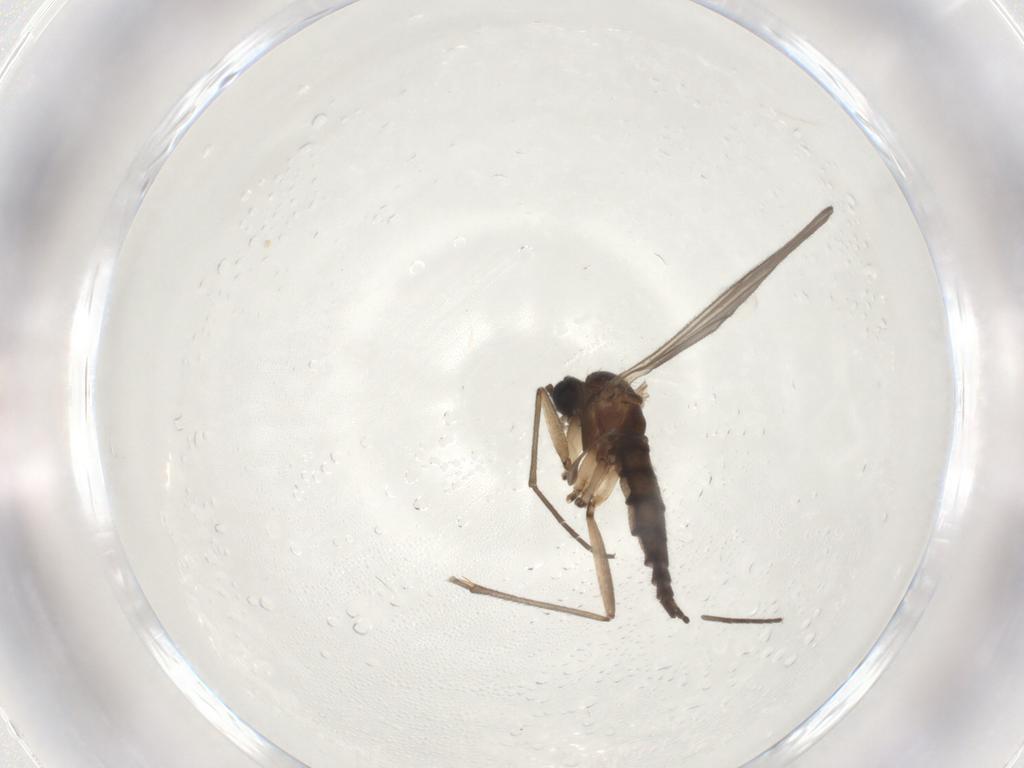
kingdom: Animalia
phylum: Arthropoda
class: Insecta
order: Diptera
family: Sciaridae
